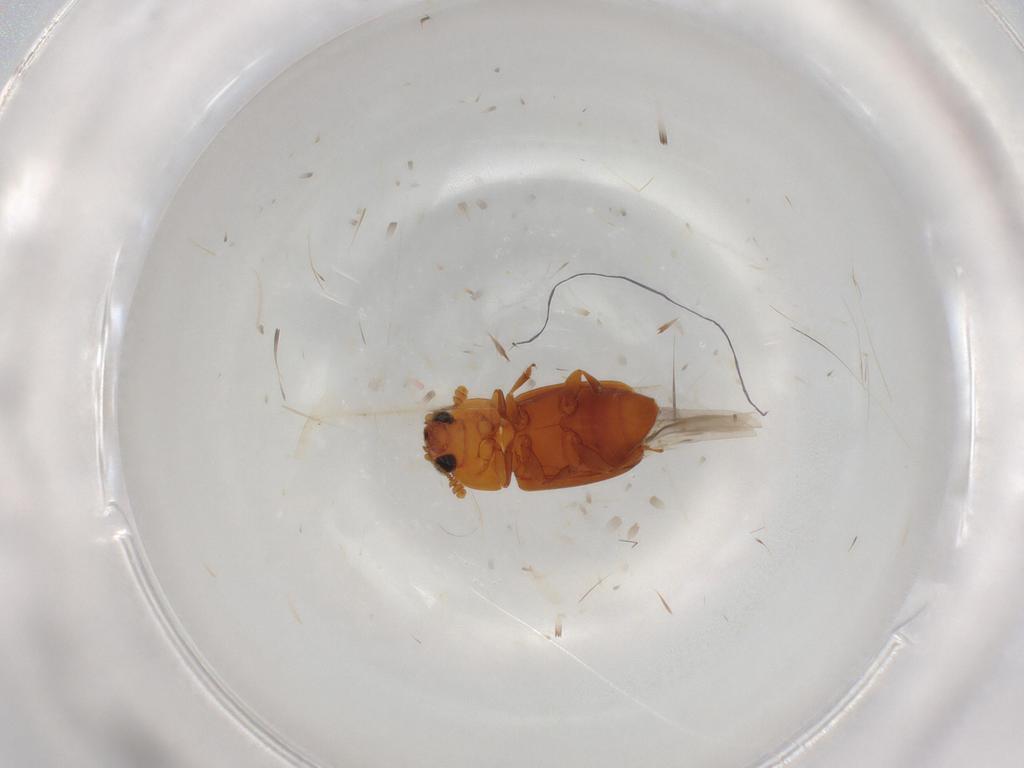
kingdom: Animalia
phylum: Arthropoda
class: Insecta
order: Coleoptera
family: Nitidulidae
